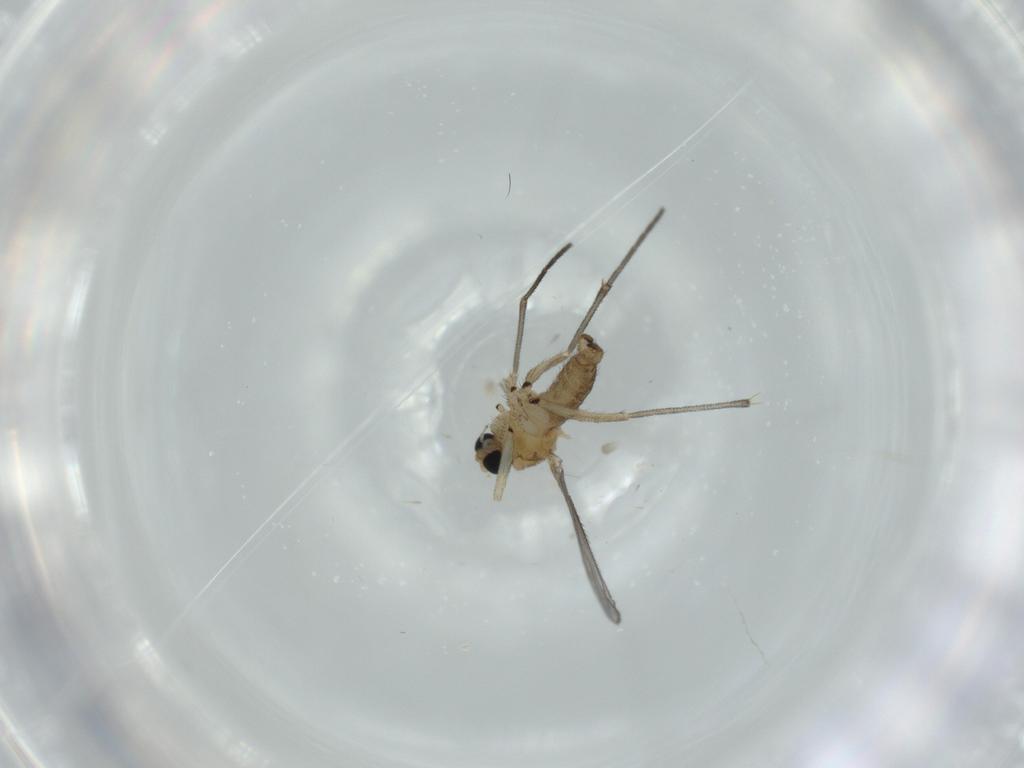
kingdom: Animalia
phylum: Arthropoda
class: Insecta
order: Diptera
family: Sciaridae
